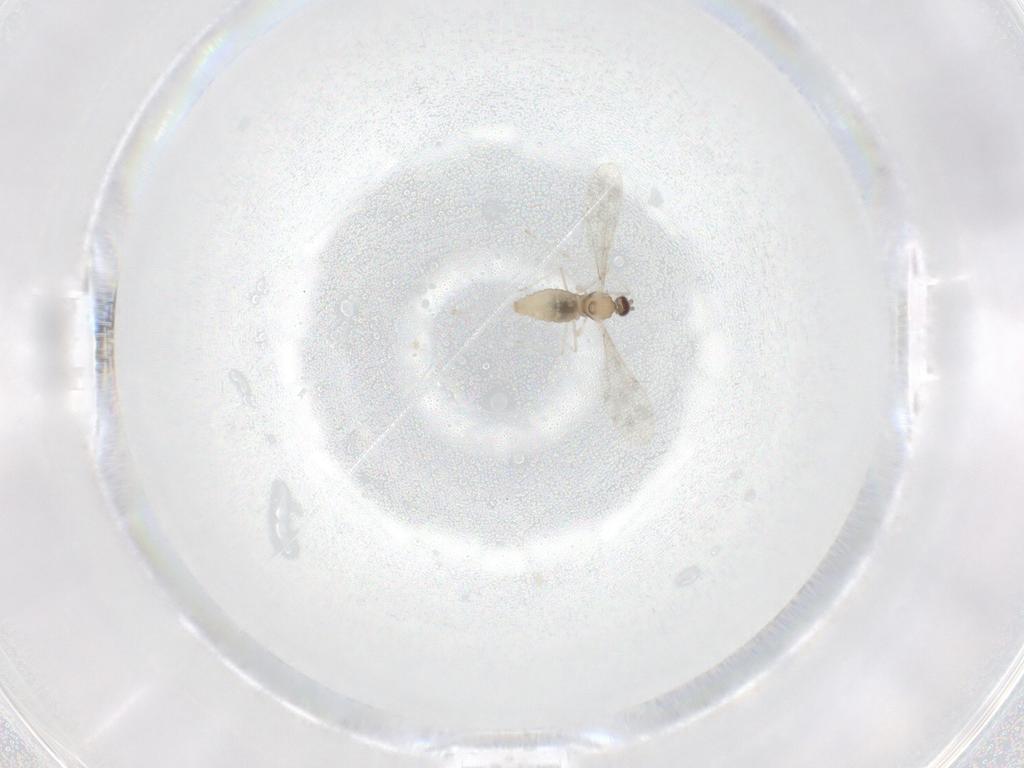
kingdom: Animalia
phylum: Arthropoda
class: Insecta
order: Diptera
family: Cecidomyiidae
